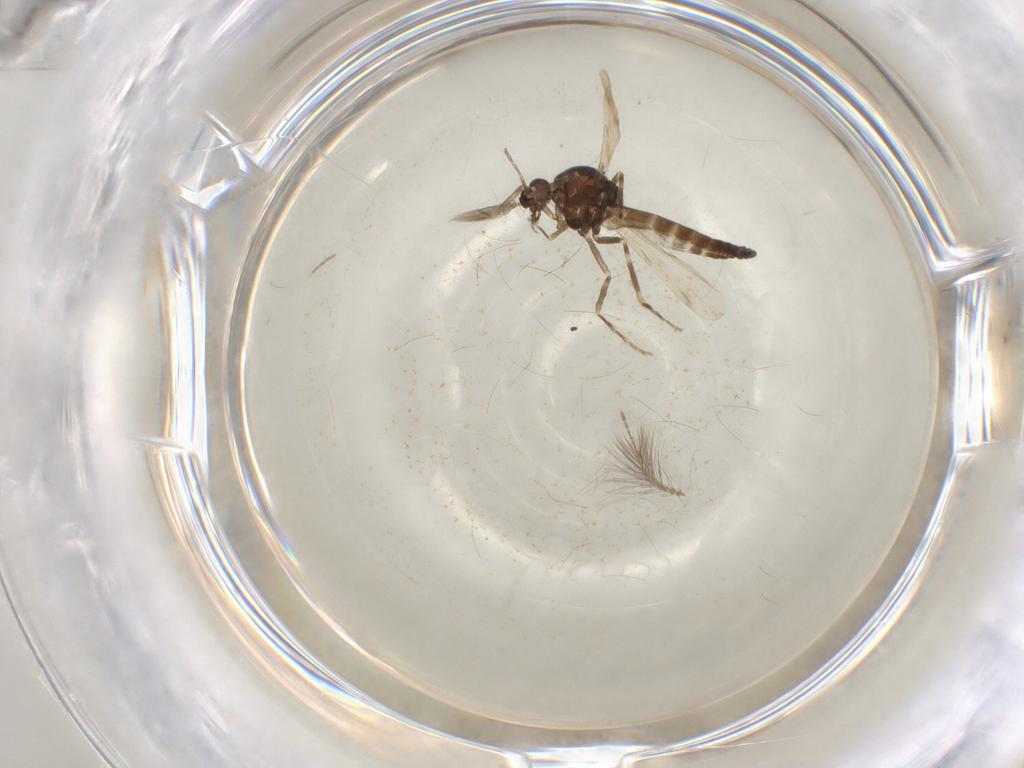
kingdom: Animalia
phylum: Arthropoda
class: Insecta
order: Diptera
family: Ceratopogonidae
